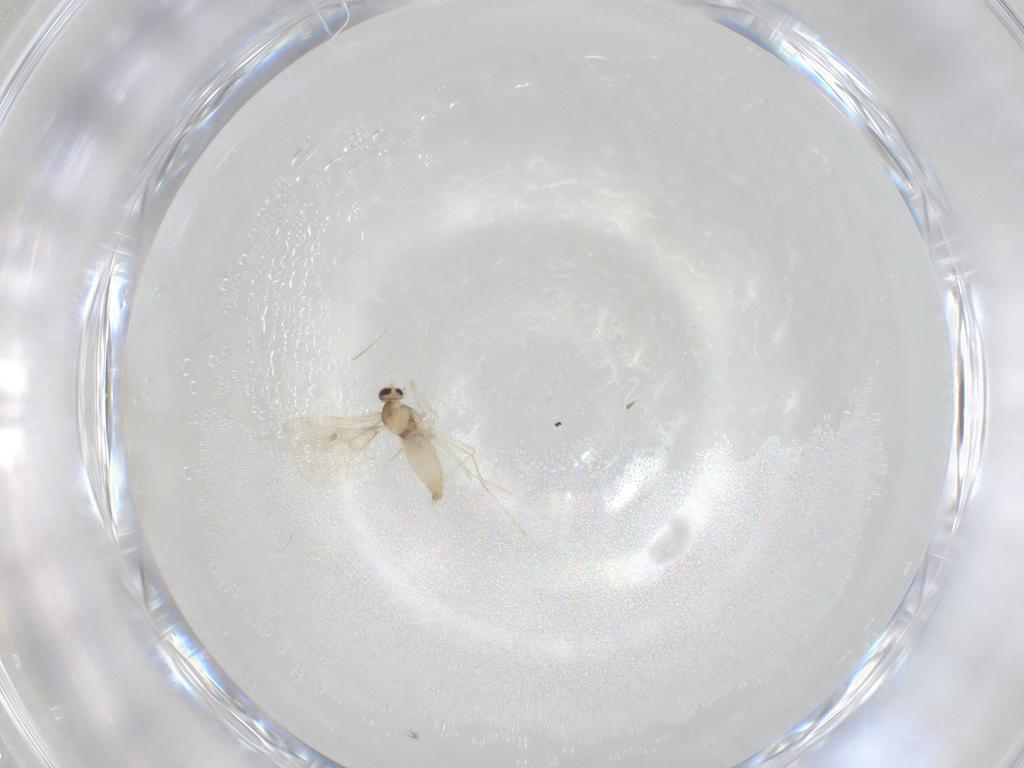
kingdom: Animalia
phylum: Arthropoda
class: Insecta
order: Diptera
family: Cecidomyiidae
